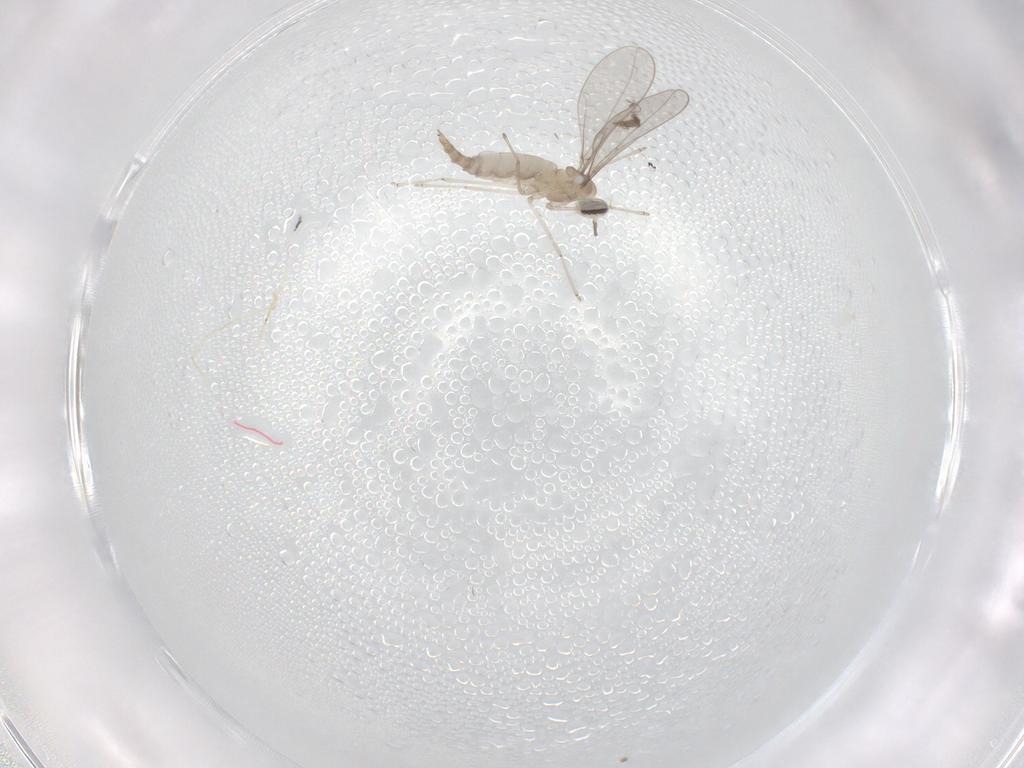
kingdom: Animalia
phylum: Arthropoda
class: Insecta
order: Diptera
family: Cecidomyiidae
